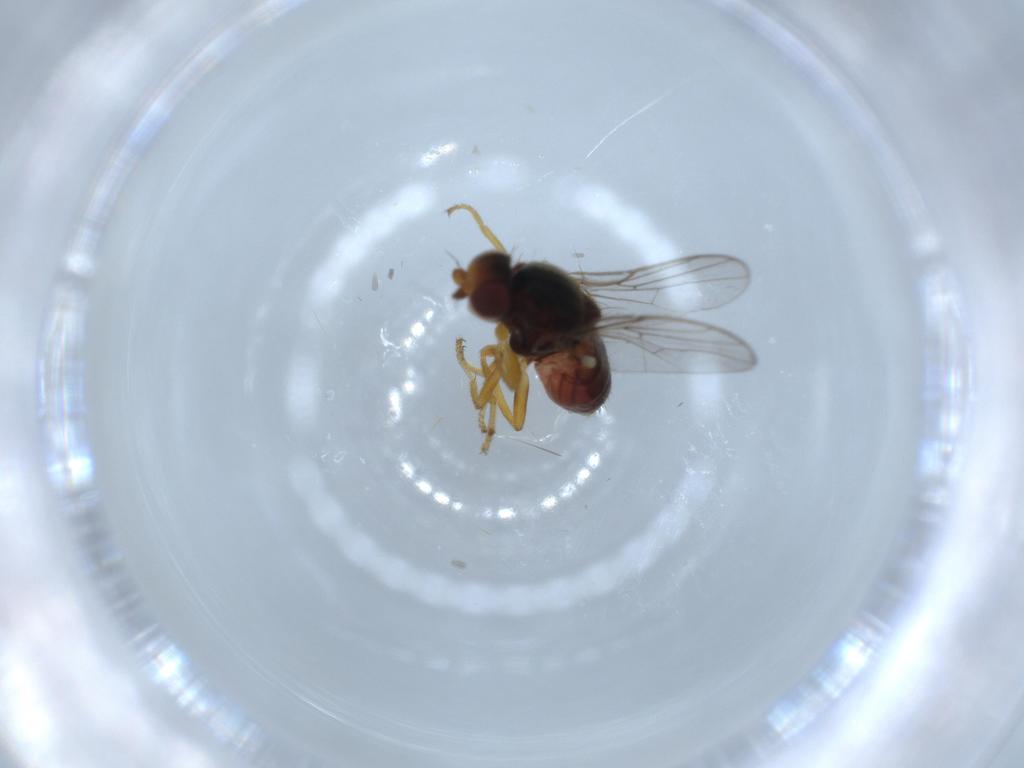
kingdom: Animalia
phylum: Arthropoda
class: Insecta
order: Diptera
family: Chloropidae
